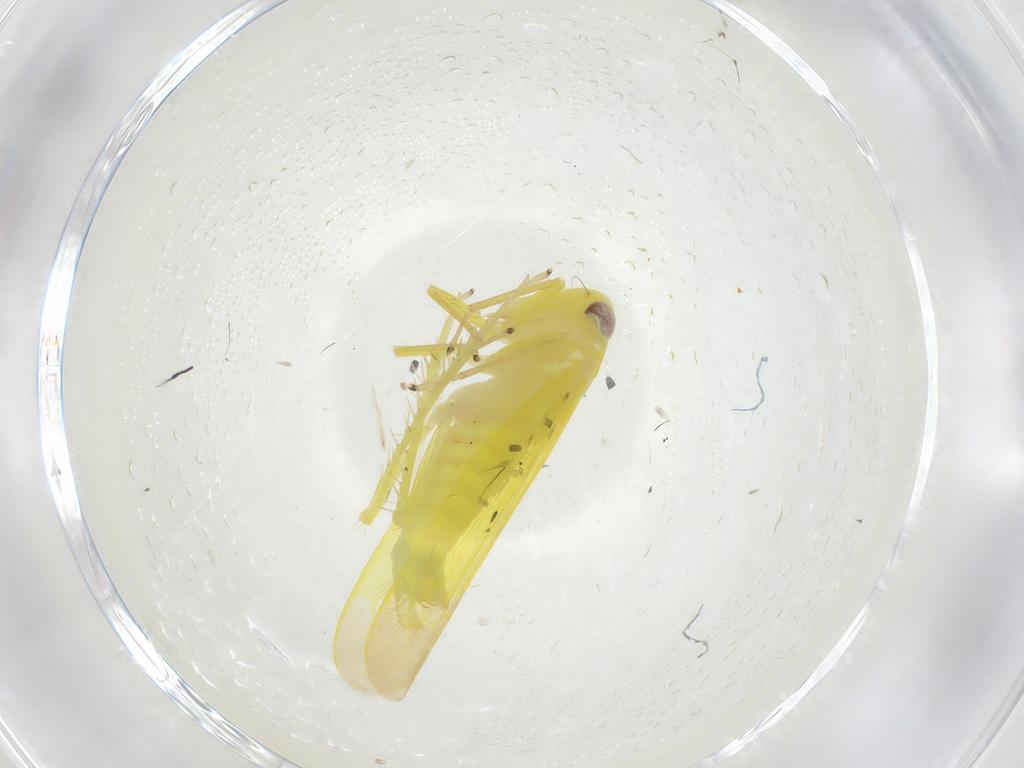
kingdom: Animalia
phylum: Arthropoda
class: Insecta
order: Hemiptera
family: Cicadellidae
